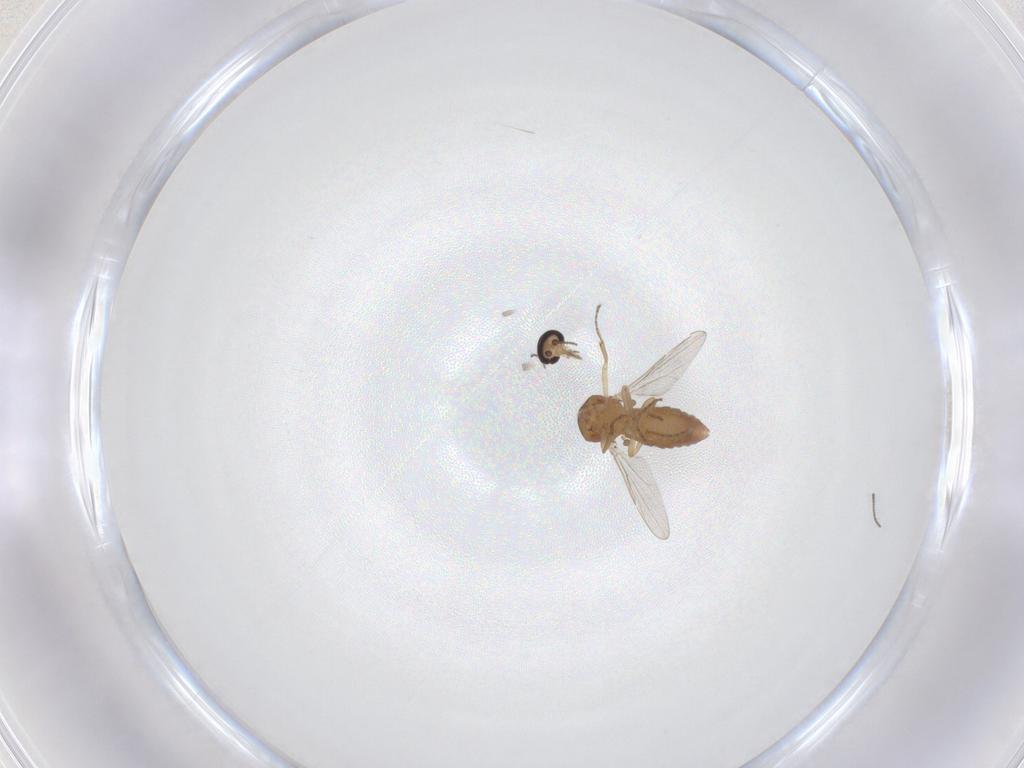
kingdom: Animalia
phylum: Arthropoda
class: Insecta
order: Diptera
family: Ceratopogonidae
